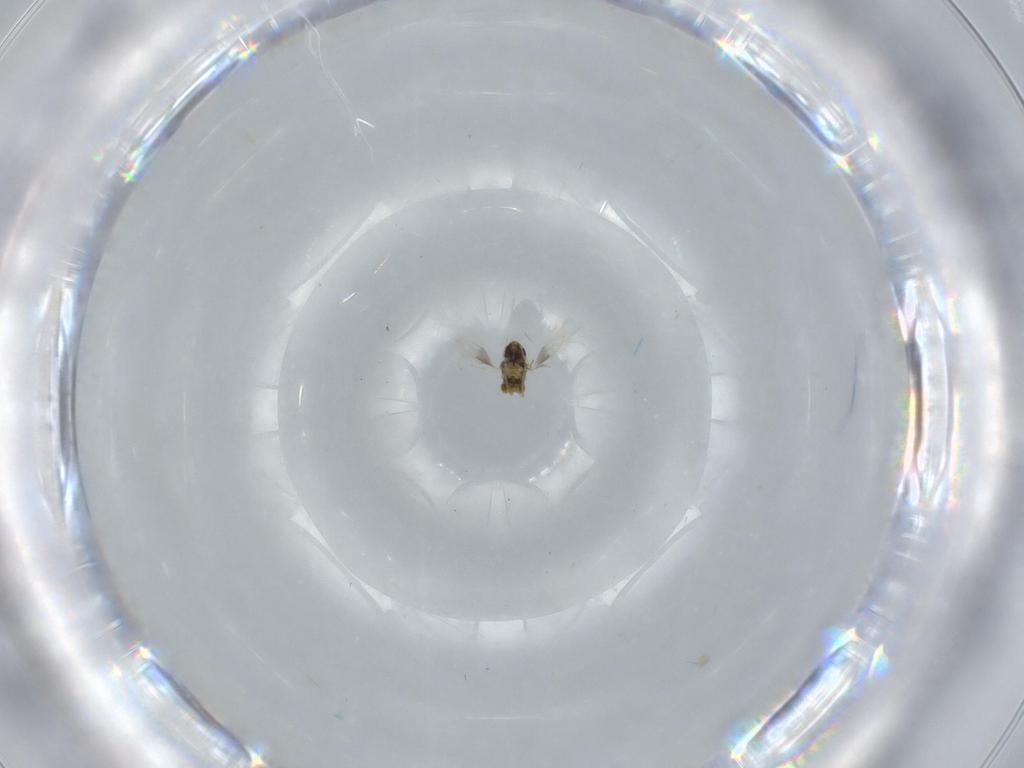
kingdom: Animalia
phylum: Arthropoda
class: Insecta
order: Hymenoptera
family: Aphelinidae
